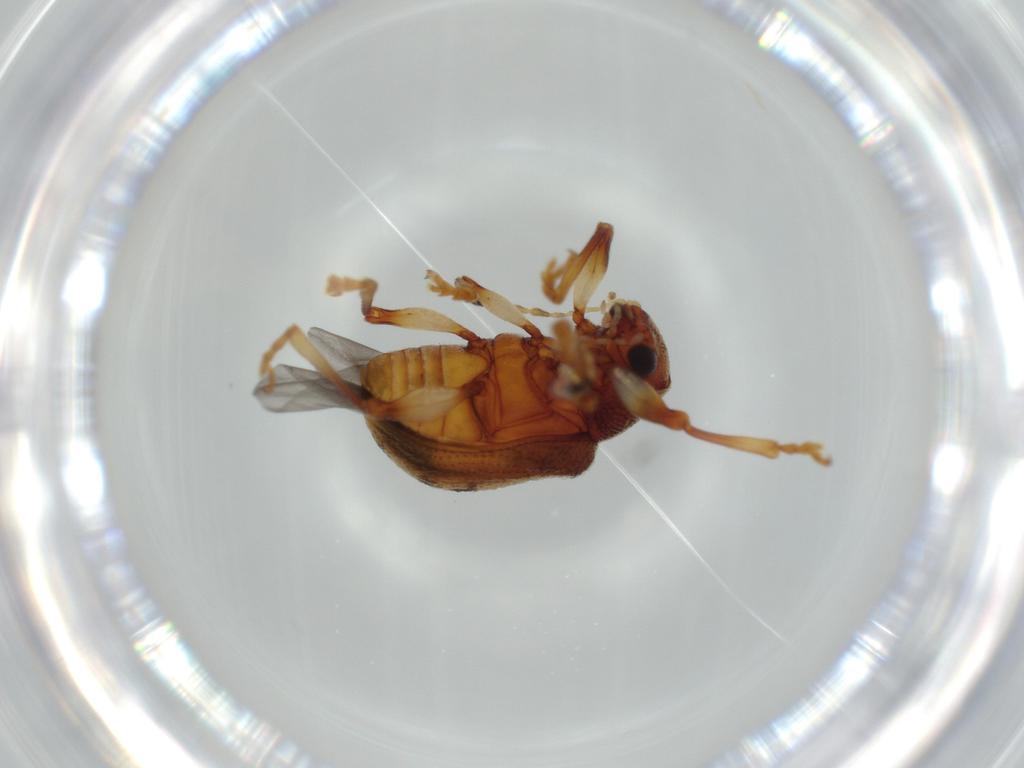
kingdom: Animalia
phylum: Arthropoda
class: Insecta
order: Coleoptera
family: Chrysomelidae
